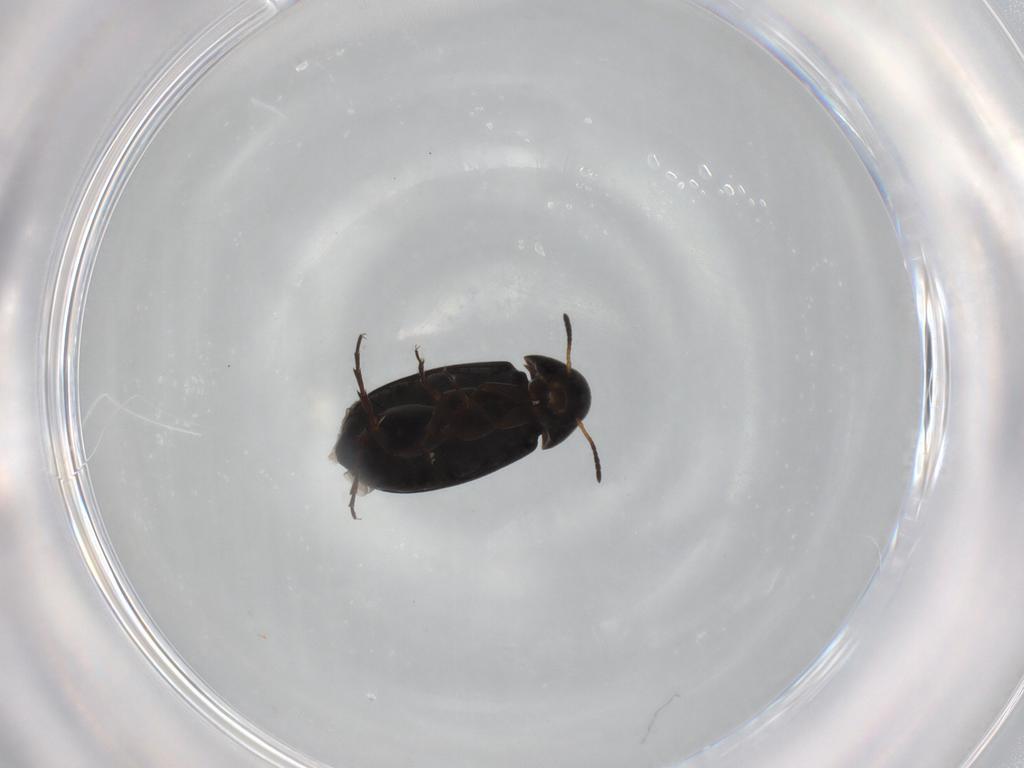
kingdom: Animalia
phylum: Arthropoda
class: Insecta
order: Coleoptera
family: Scraptiidae
